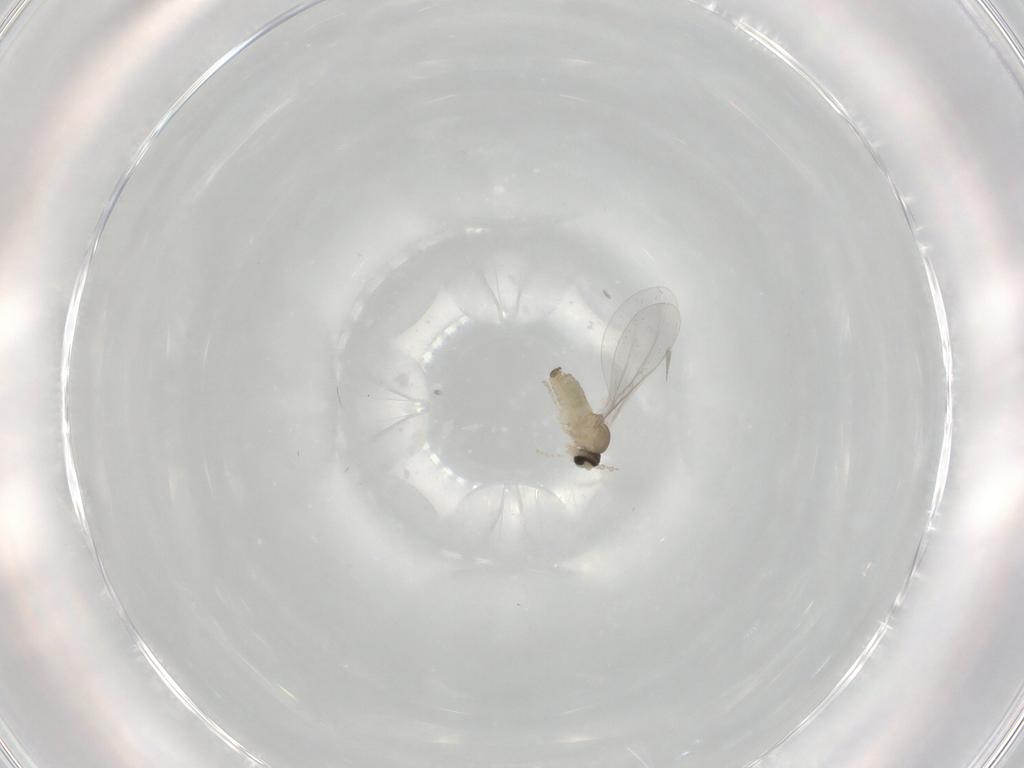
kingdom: Animalia
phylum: Arthropoda
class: Insecta
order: Diptera
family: Cecidomyiidae
